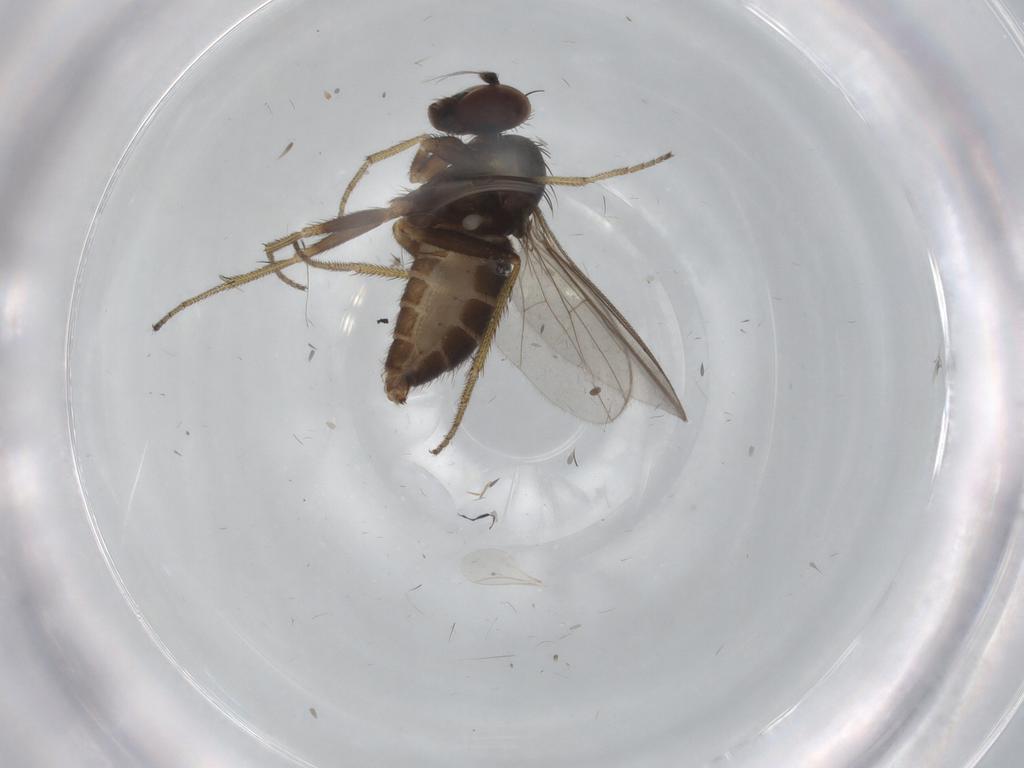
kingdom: Animalia
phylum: Arthropoda
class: Insecta
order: Diptera
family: Dolichopodidae
